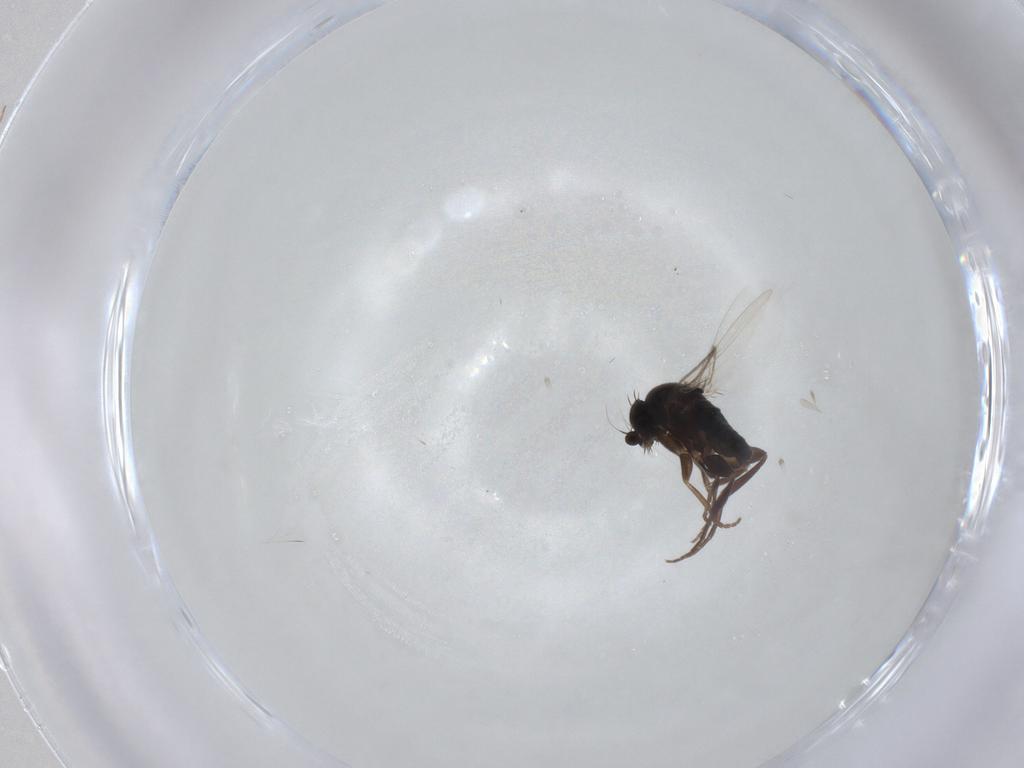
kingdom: Animalia
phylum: Arthropoda
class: Insecta
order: Diptera
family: Phoridae
